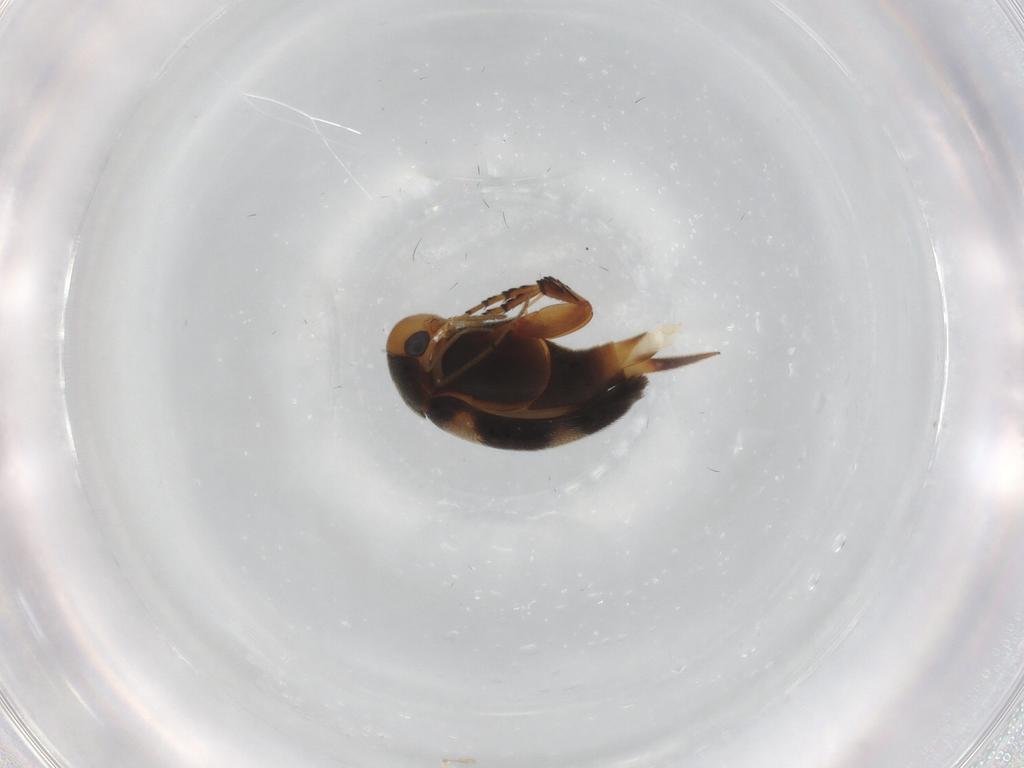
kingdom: Animalia
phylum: Arthropoda
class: Insecta
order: Coleoptera
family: Mordellidae
